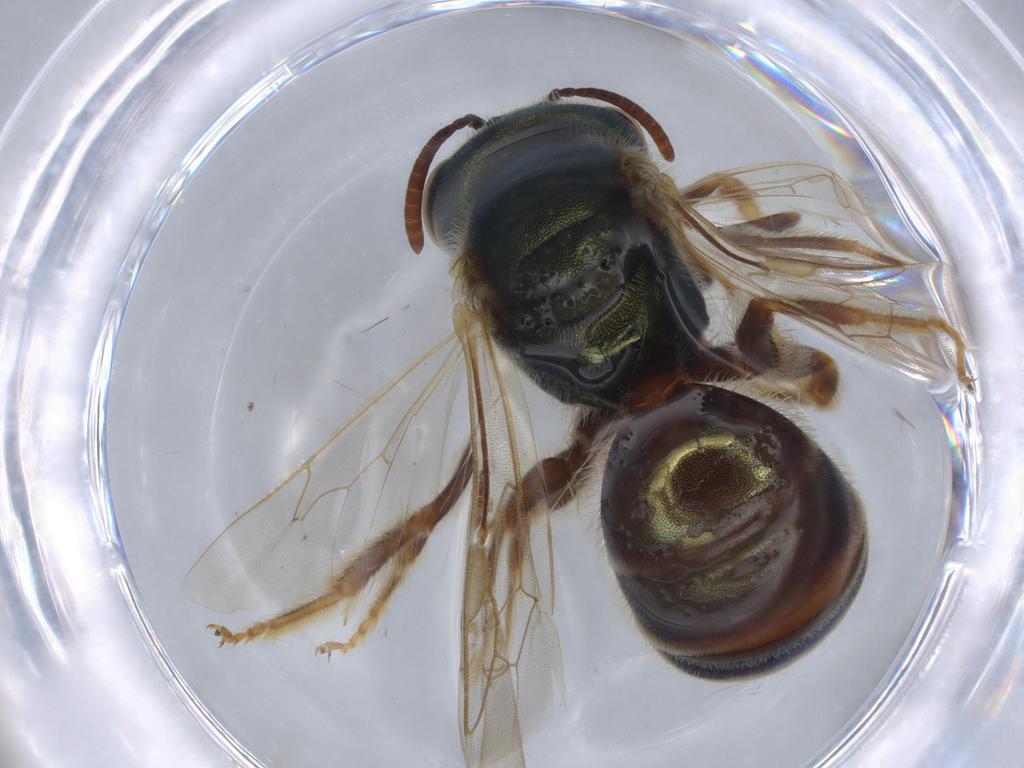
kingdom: Animalia
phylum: Arthropoda
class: Insecta
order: Hymenoptera
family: Halictidae
